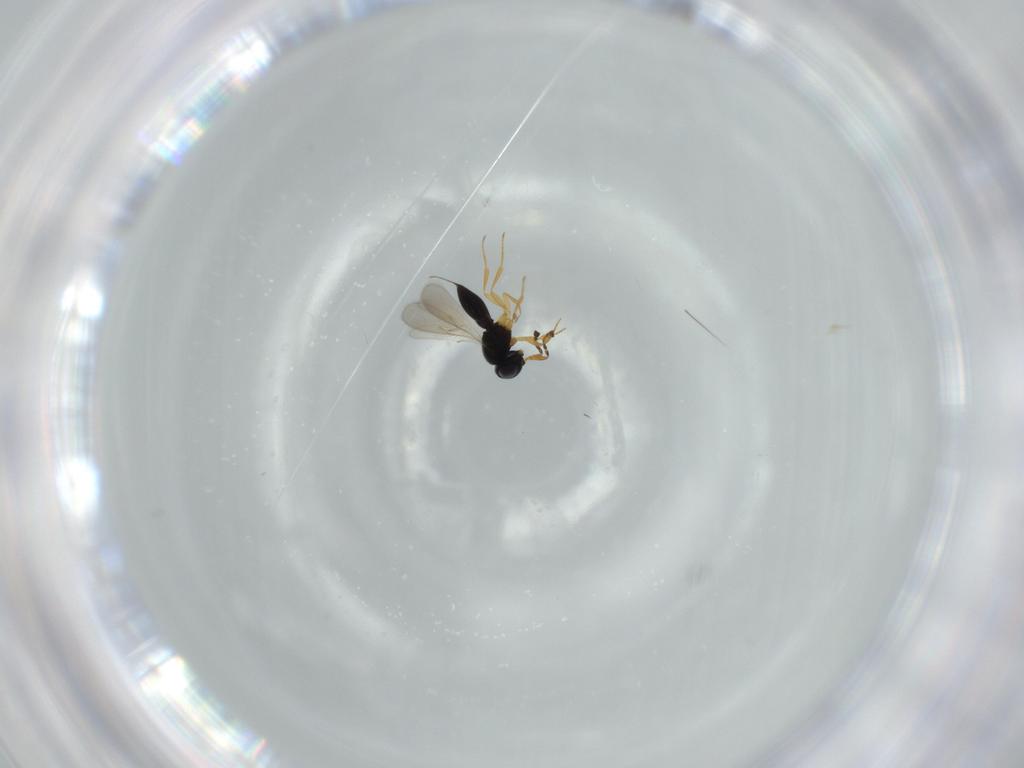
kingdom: Animalia
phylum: Arthropoda
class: Insecta
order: Hymenoptera
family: Scelionidae
